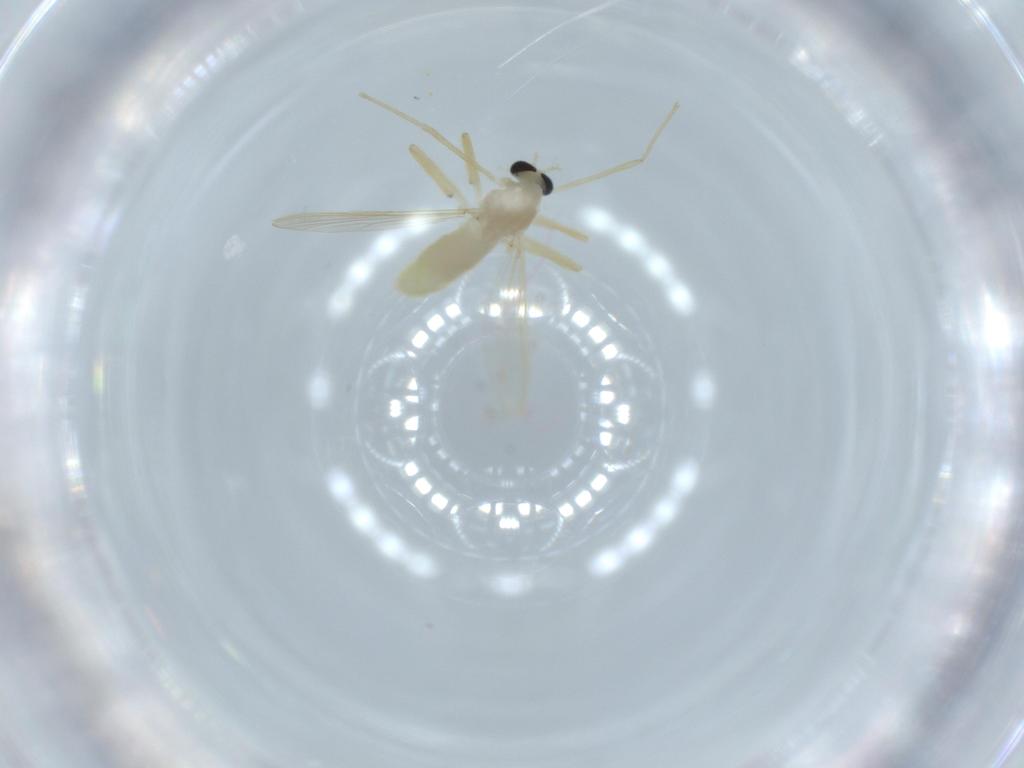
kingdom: Animalia
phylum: Arthropoda
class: Insecta
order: Diptera
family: Chironomidae
